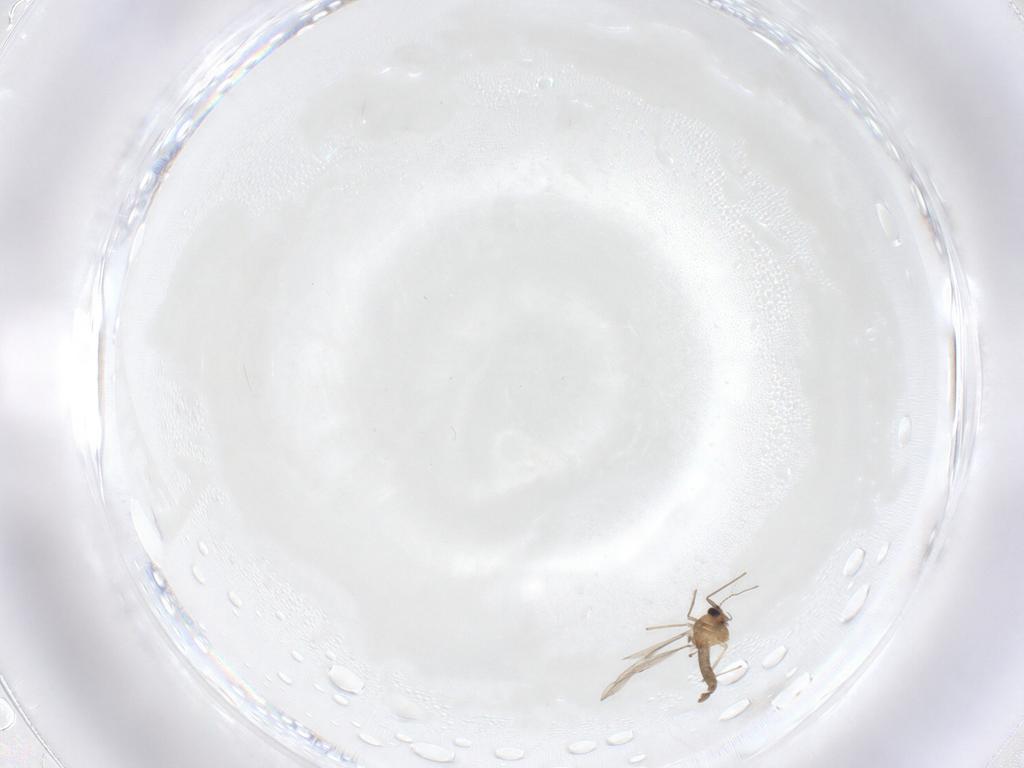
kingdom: Animalia
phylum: Arthropoda
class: Insecta
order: Diptera
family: Chironomidae
